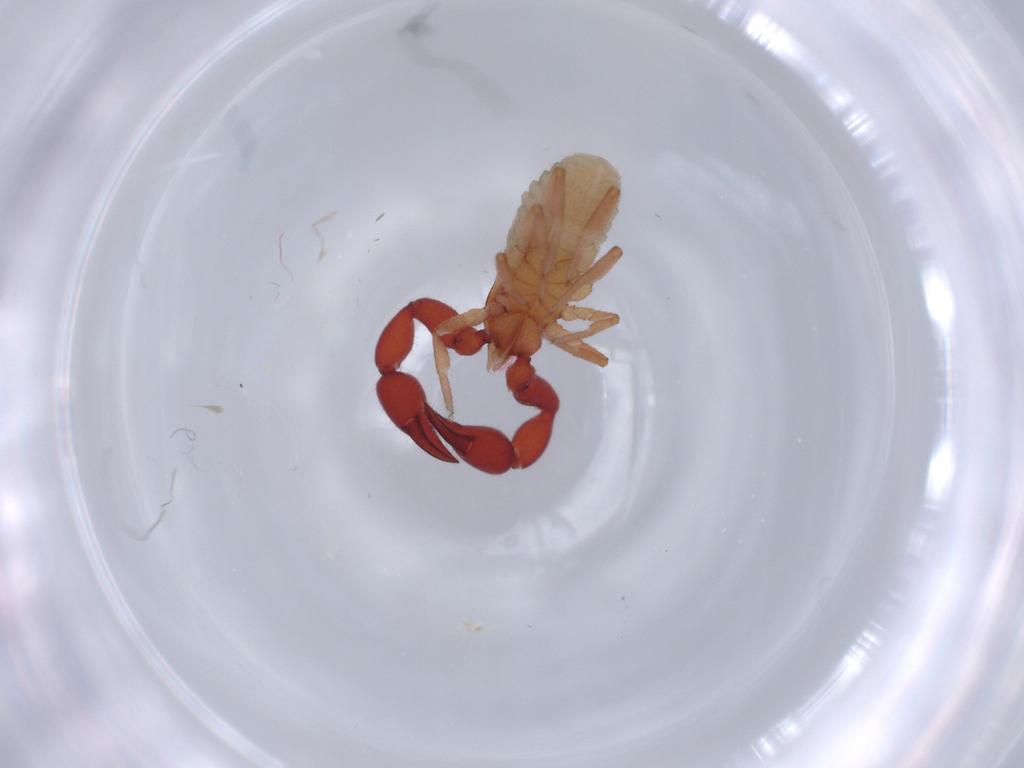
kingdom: Animalia
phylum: Arthropoda
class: Arachnida
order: Pseudoscorpiones
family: Chernetidae
